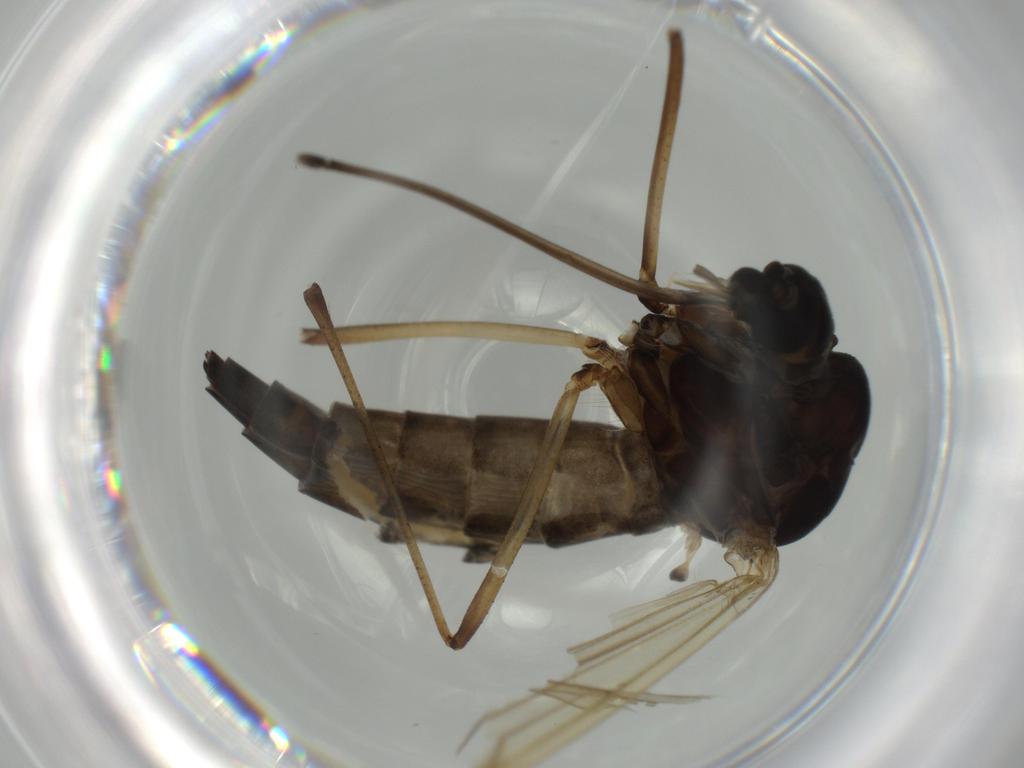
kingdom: Animalia
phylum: Arthropoda
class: Insecta
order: Diptera
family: Chironomidae
